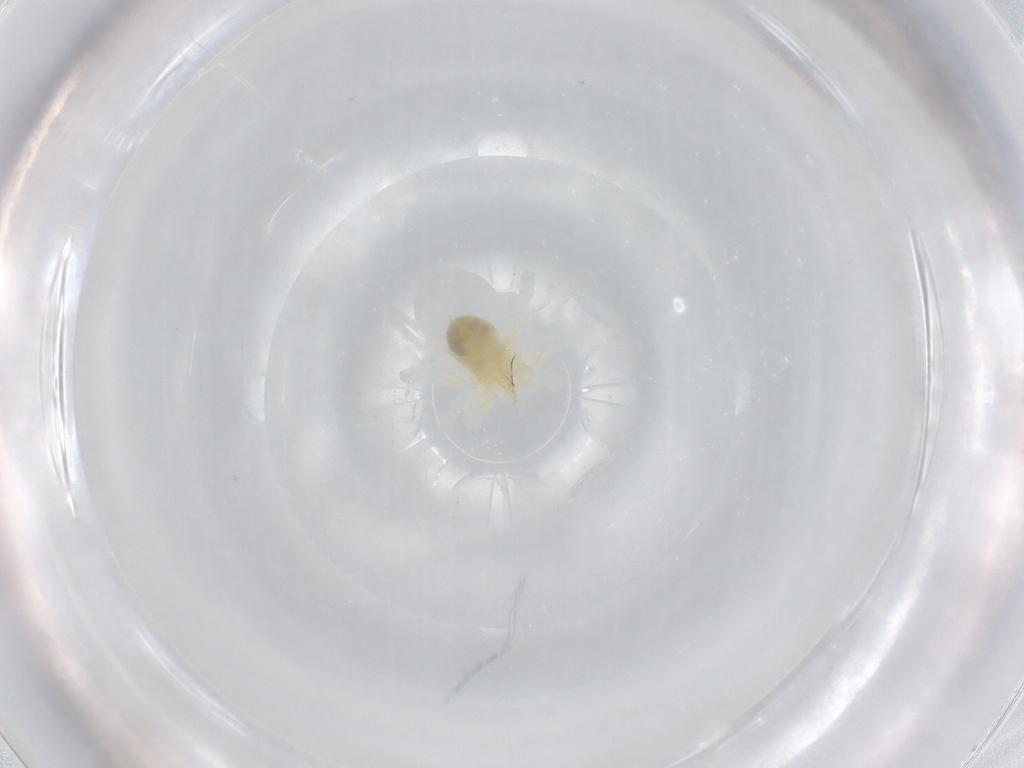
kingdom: Animalia
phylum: Arthropoda
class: Arachnida
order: Trombidiformes
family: Anystidae
